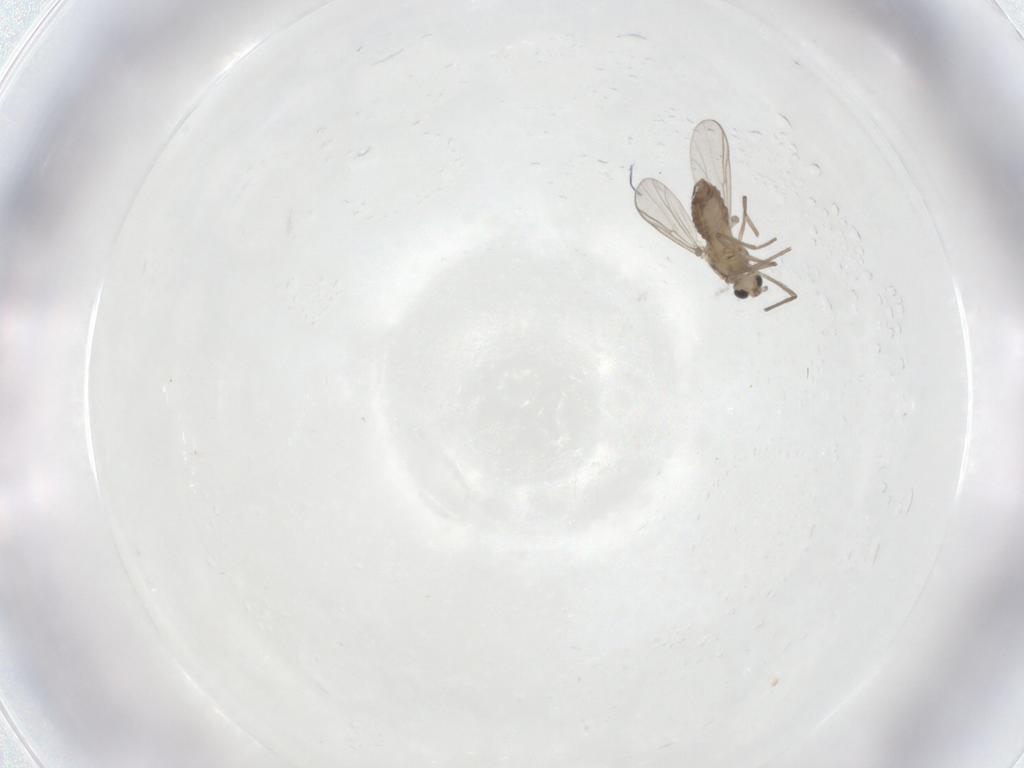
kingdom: Animalia
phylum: Arthropoda
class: Insecta
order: Diptera
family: Chironomidae
